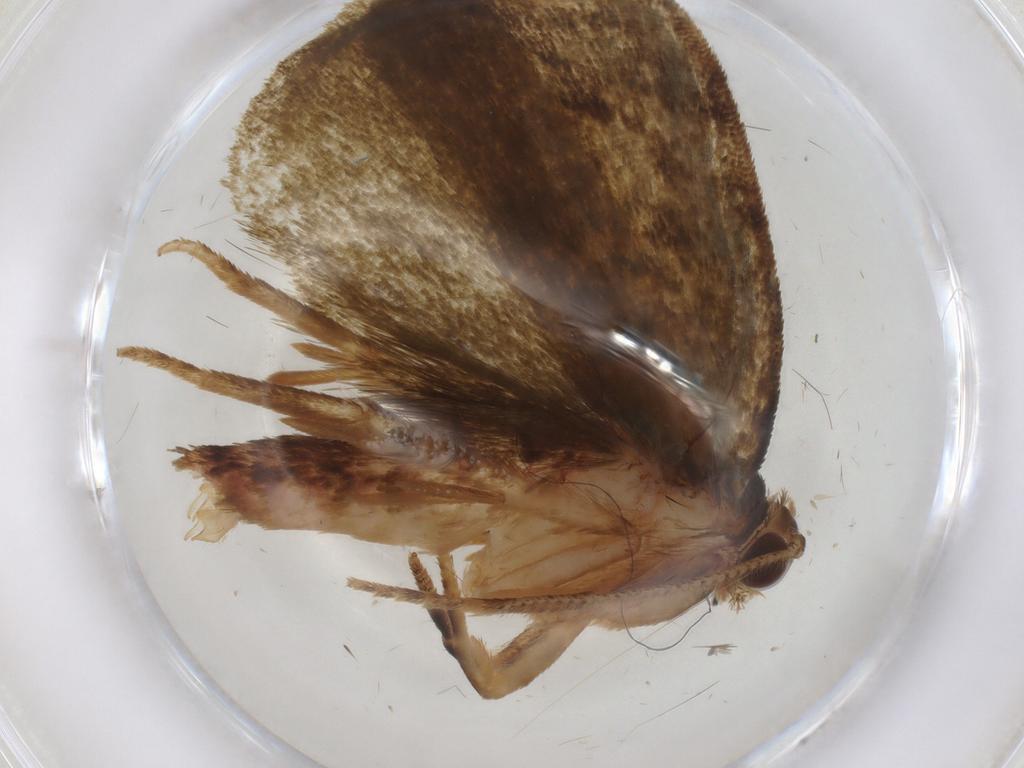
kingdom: Animalia
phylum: Arthropoda
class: Insecta
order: Lepidoptera
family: Geometridae
